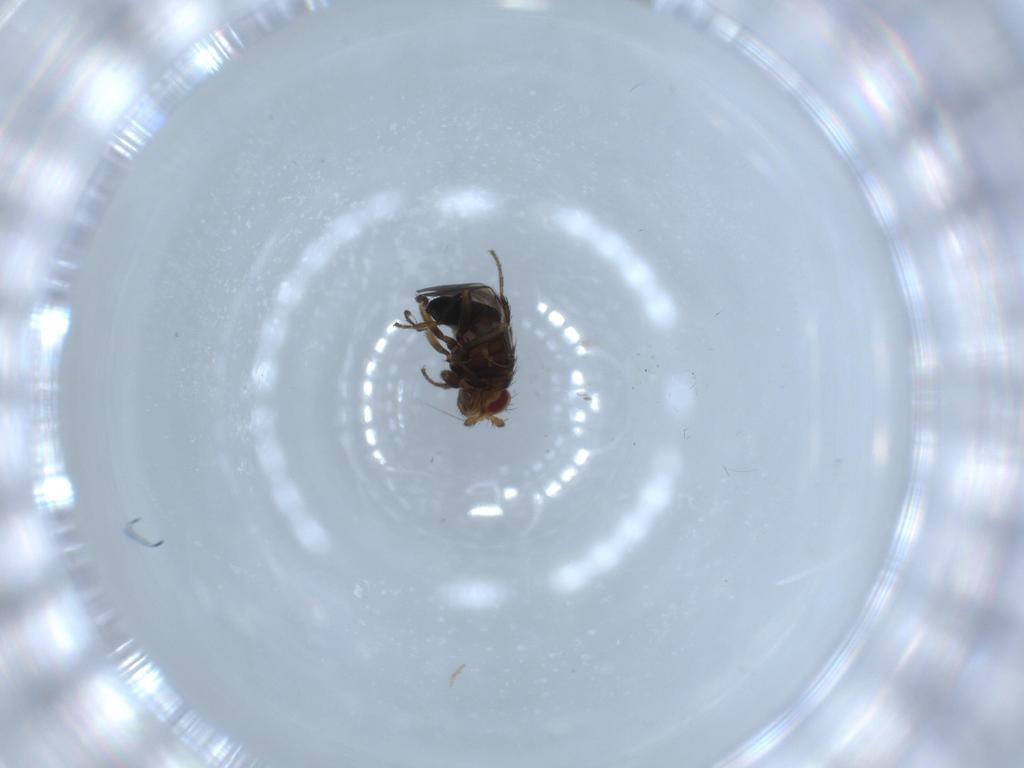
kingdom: Animalia
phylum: Arthropoda
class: Insecta
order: Diptera
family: Sphaeroceridae
